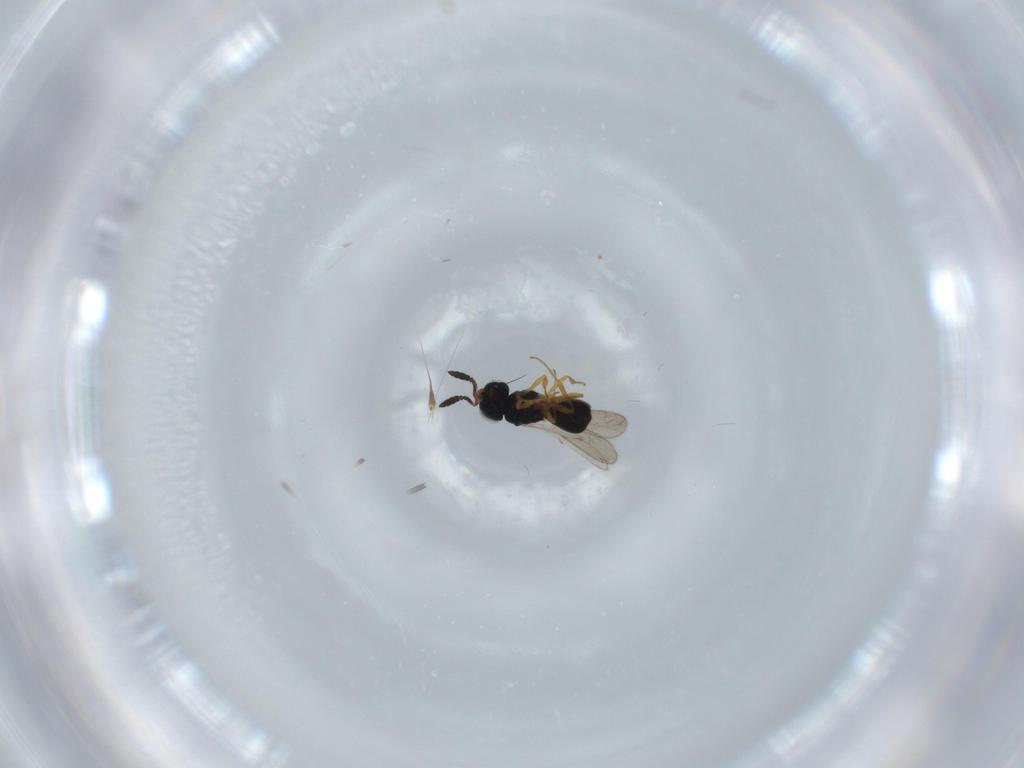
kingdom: Animalia
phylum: Arthropoda
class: Insecta
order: Hymenoptera
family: Scelionidae
